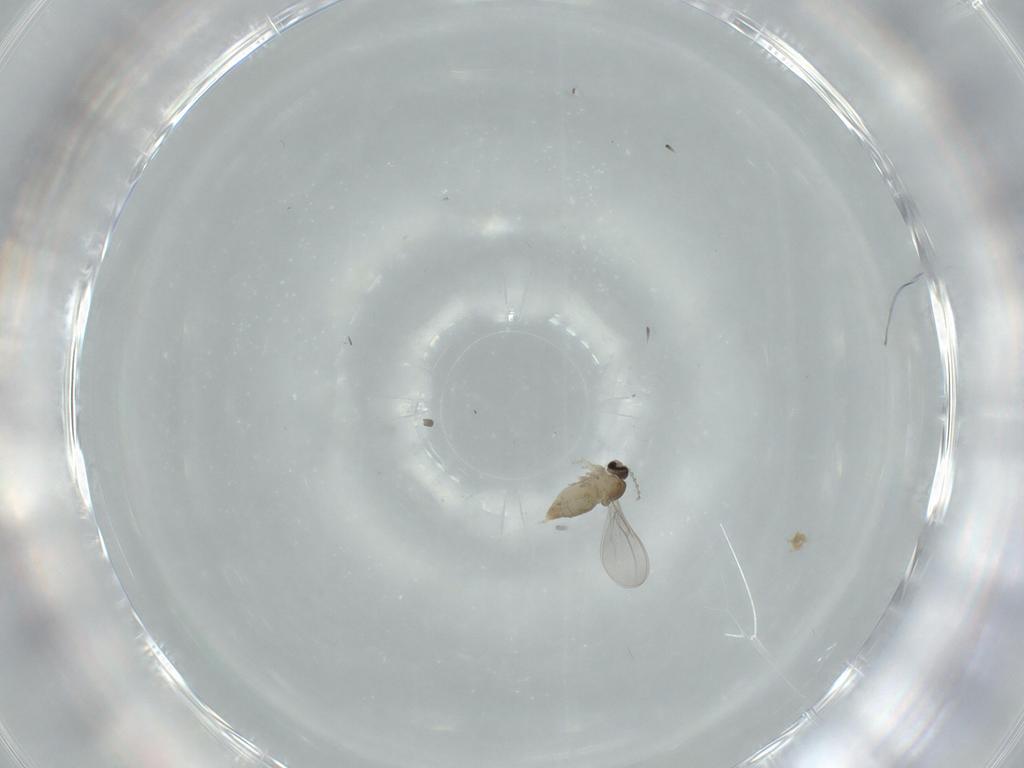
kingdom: Animalia
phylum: Arthropoda
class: Insecta
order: Diptera
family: Cecidomyiidae
